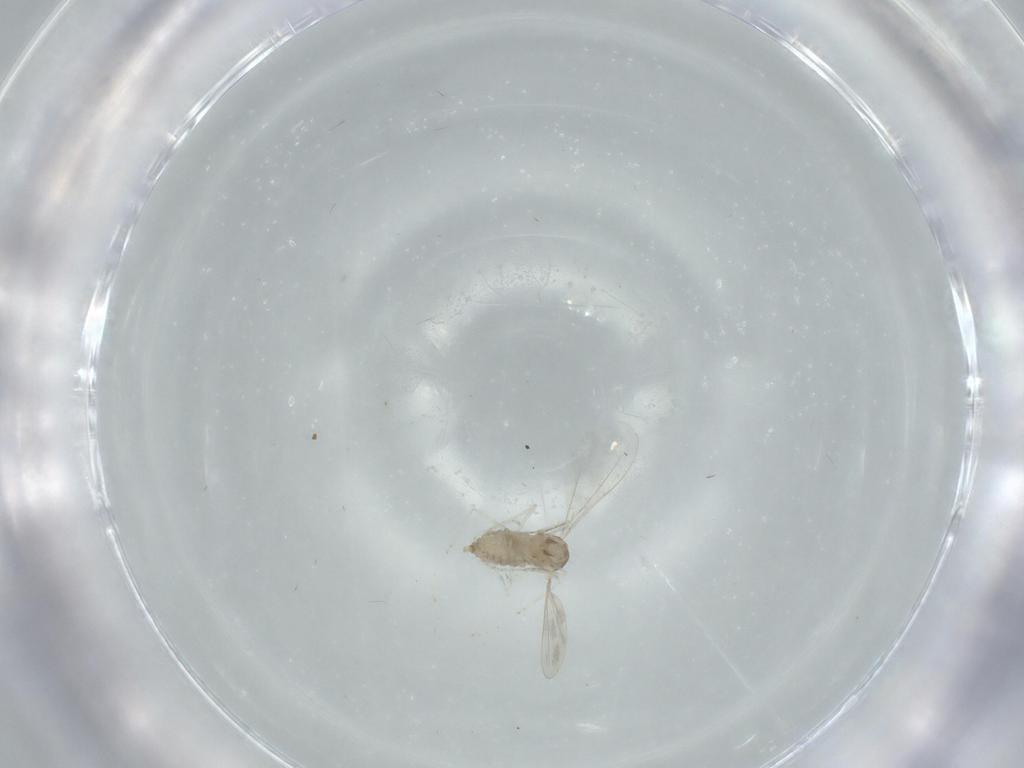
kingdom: Animalia
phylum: Arthropoda
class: Insecta
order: Diptera
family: Cecidomyiidae
